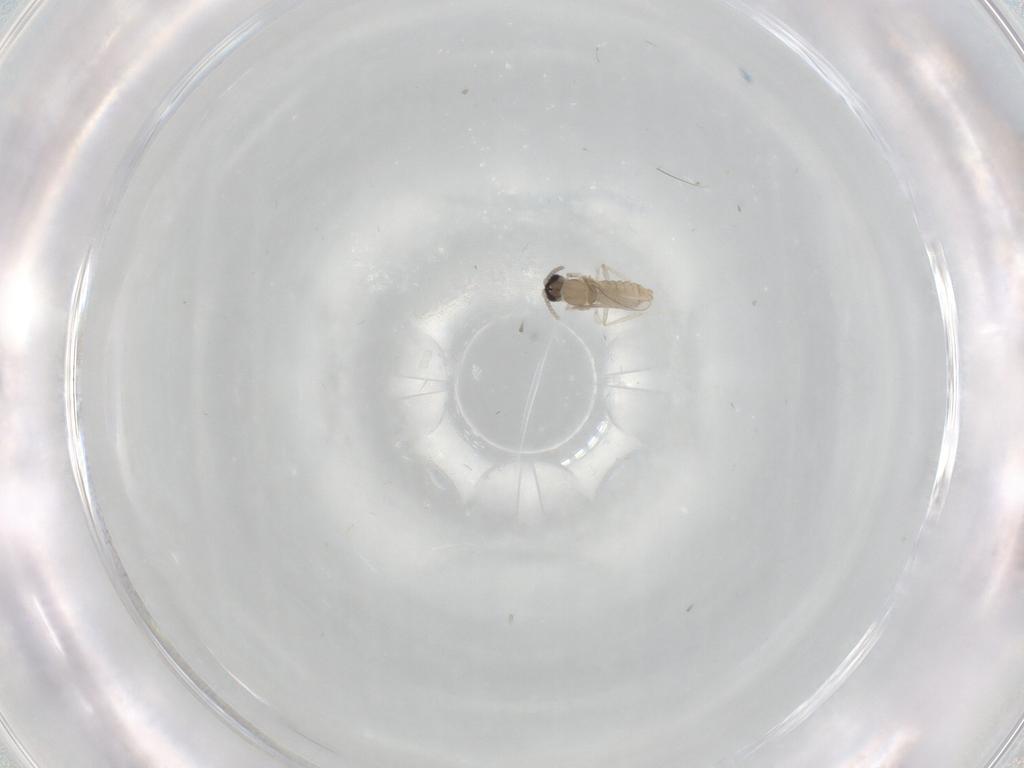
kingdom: Animalia
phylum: Arthropoda
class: Insecta
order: Diptera
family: Cecidomyiidae
